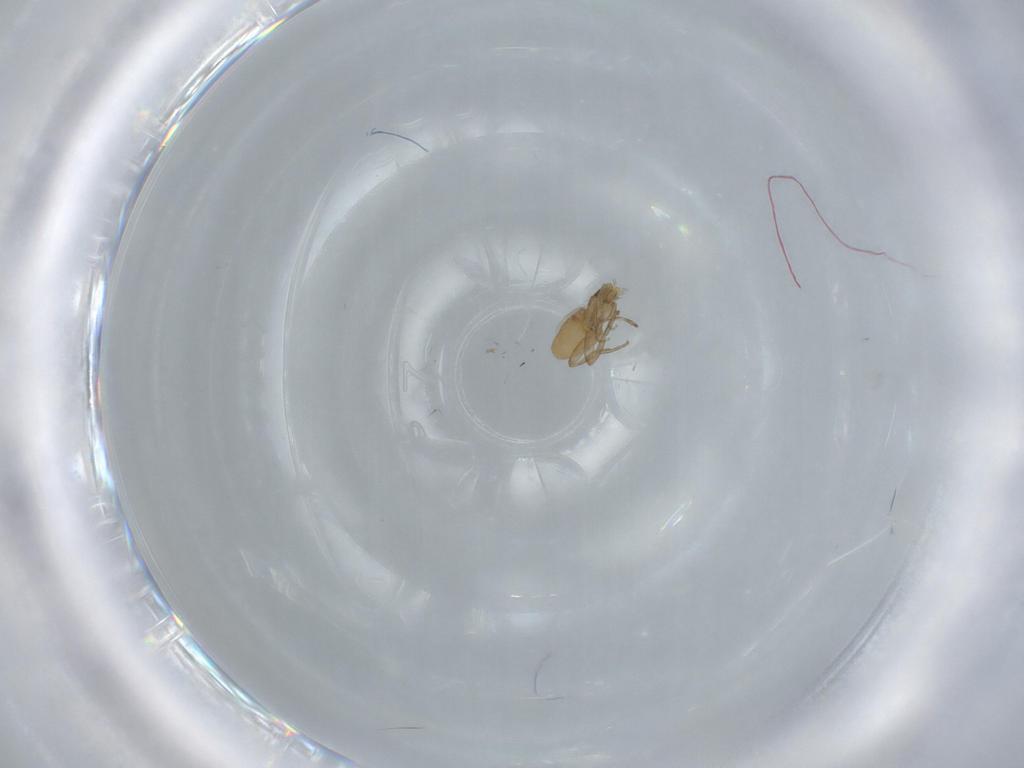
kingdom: Animalia
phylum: Arthropoda
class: Insecta
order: Diptera
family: Phoridae
